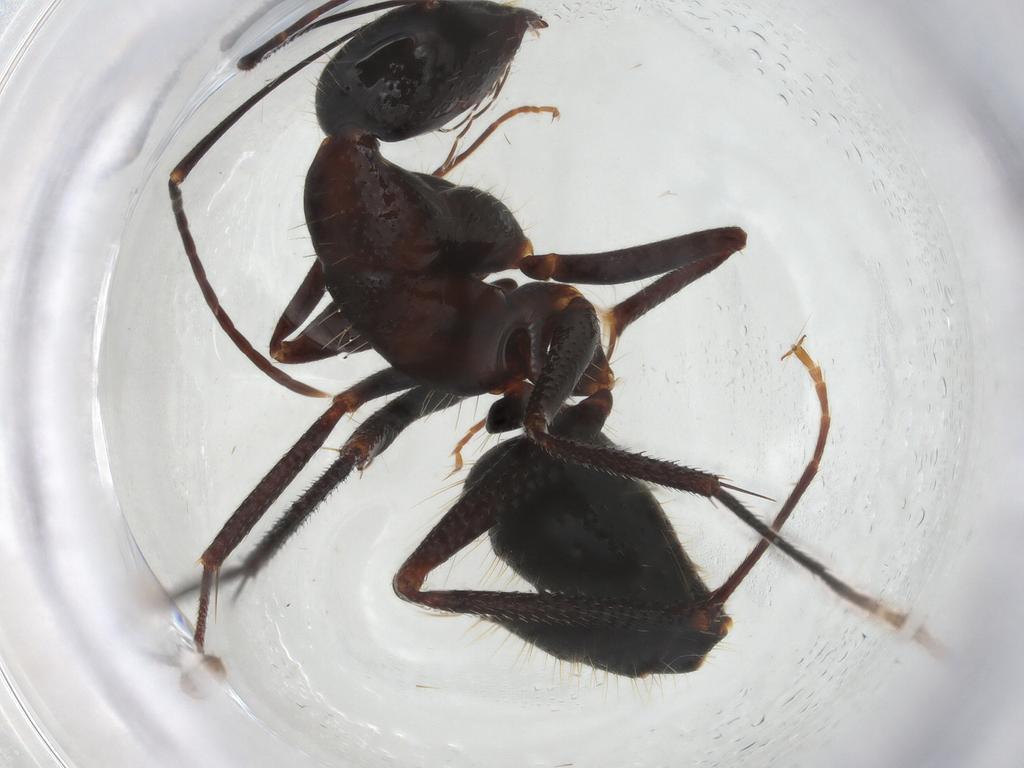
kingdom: Animalia
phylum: Arthropoda
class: Insecta
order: Hymenoptera
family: Formicidae
